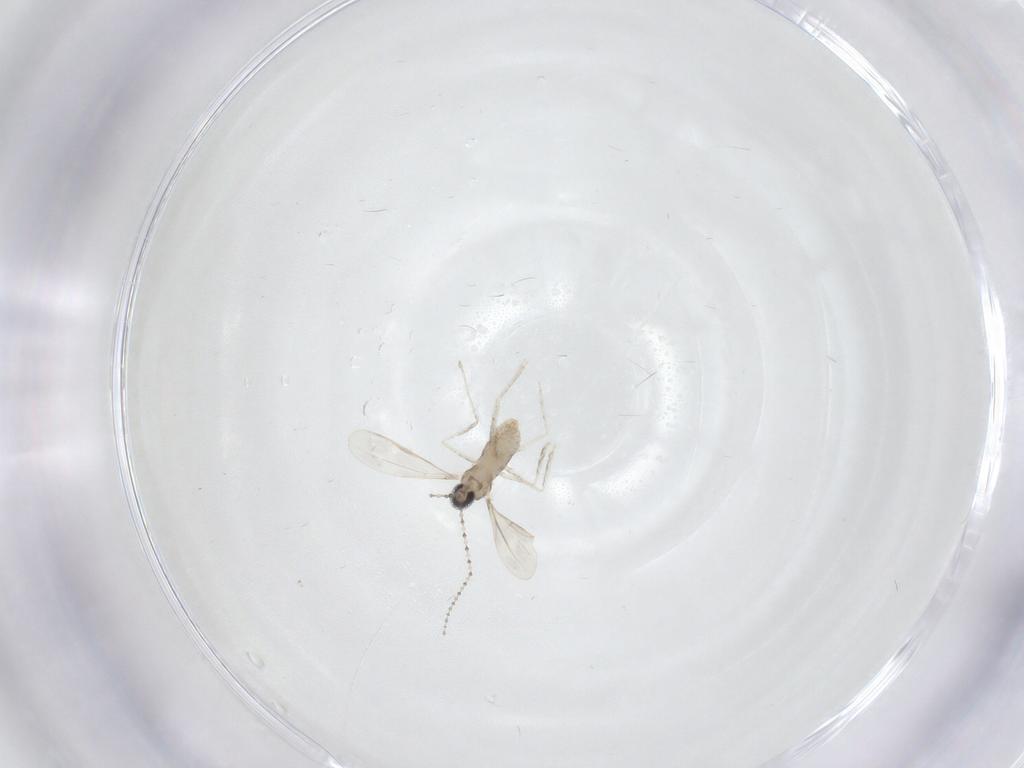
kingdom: Animalia
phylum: Arthropoda
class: Insecta
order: Diptera
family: Cecidomyiidae
